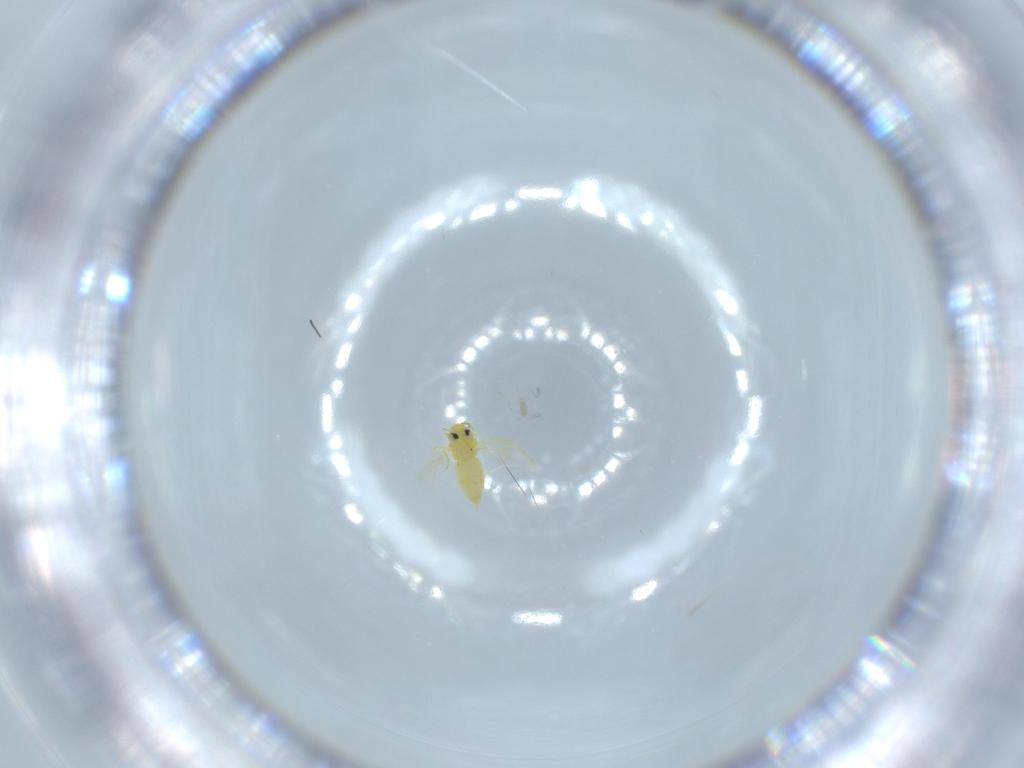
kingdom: Animalia
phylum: Arthropoda
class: Insecta
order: Hemiptera
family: Aleyrodidae
